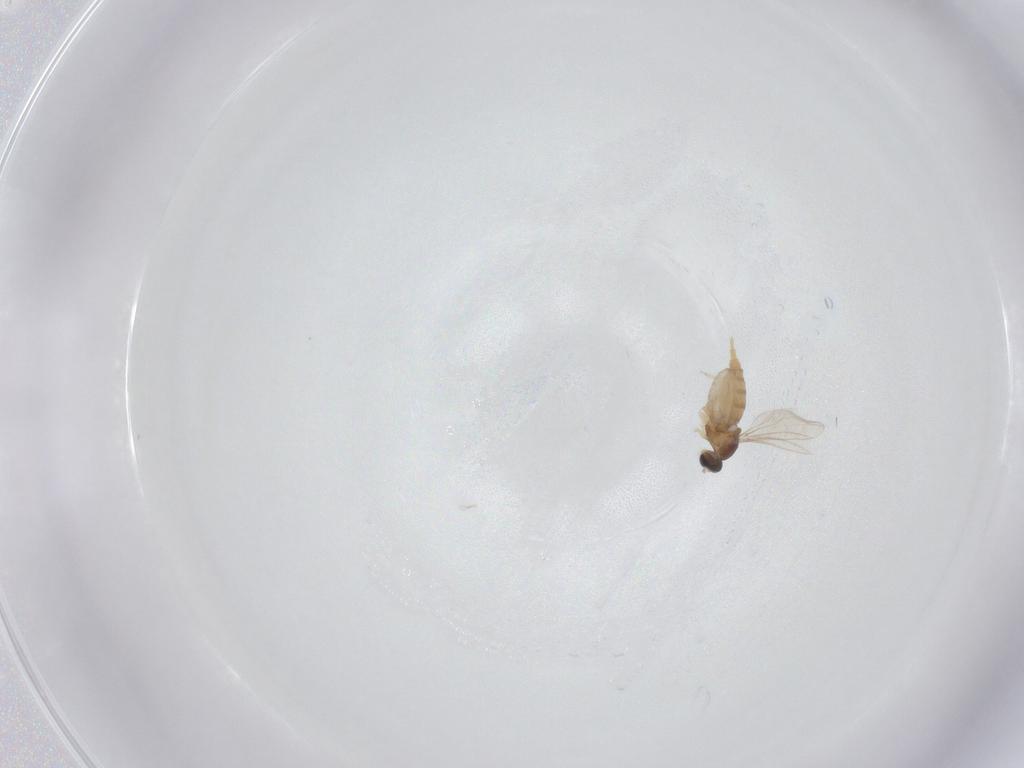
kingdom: Animalia
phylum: Arthropoda
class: Insecta
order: Diptera
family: Cecidomyiidae
